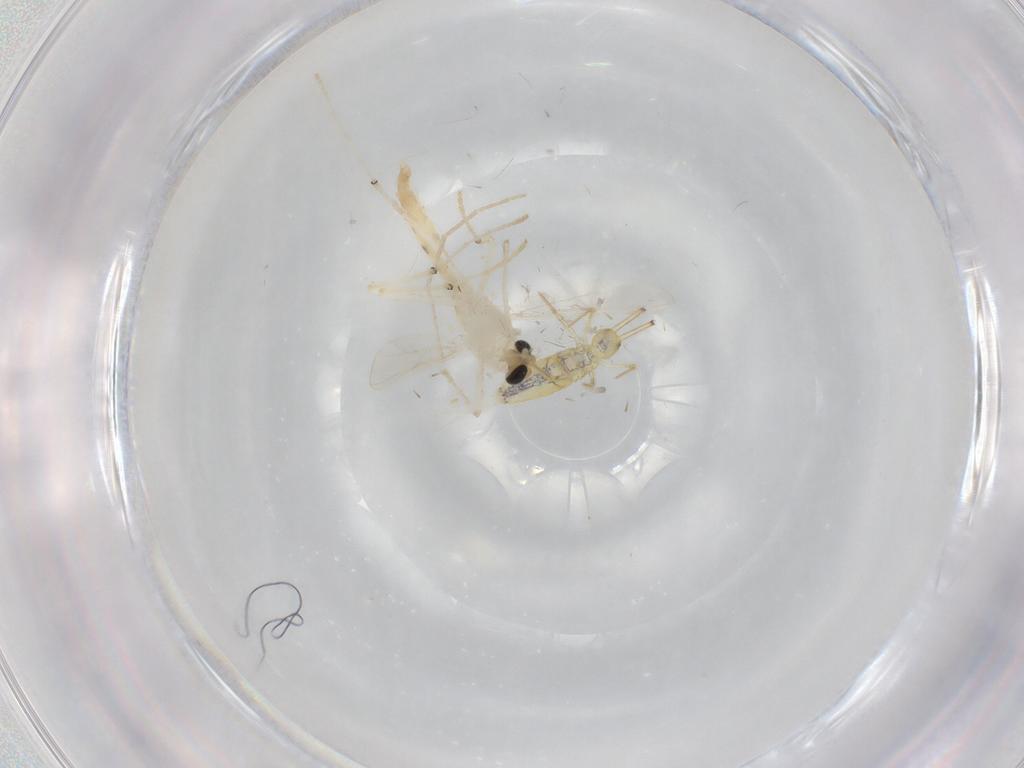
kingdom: Animalia
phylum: Arthropoda
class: Insecta
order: Diptera
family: Chironomidae
